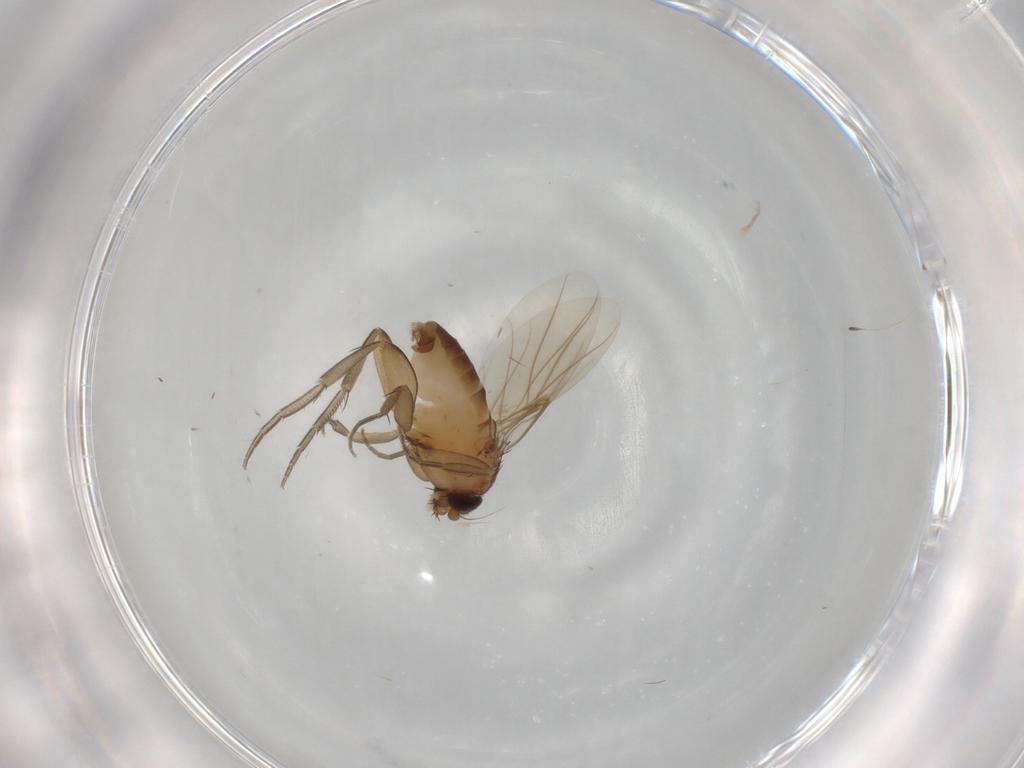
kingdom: Animalia
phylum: Arthropoda
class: Insecta
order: Diptera
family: Phoridae
